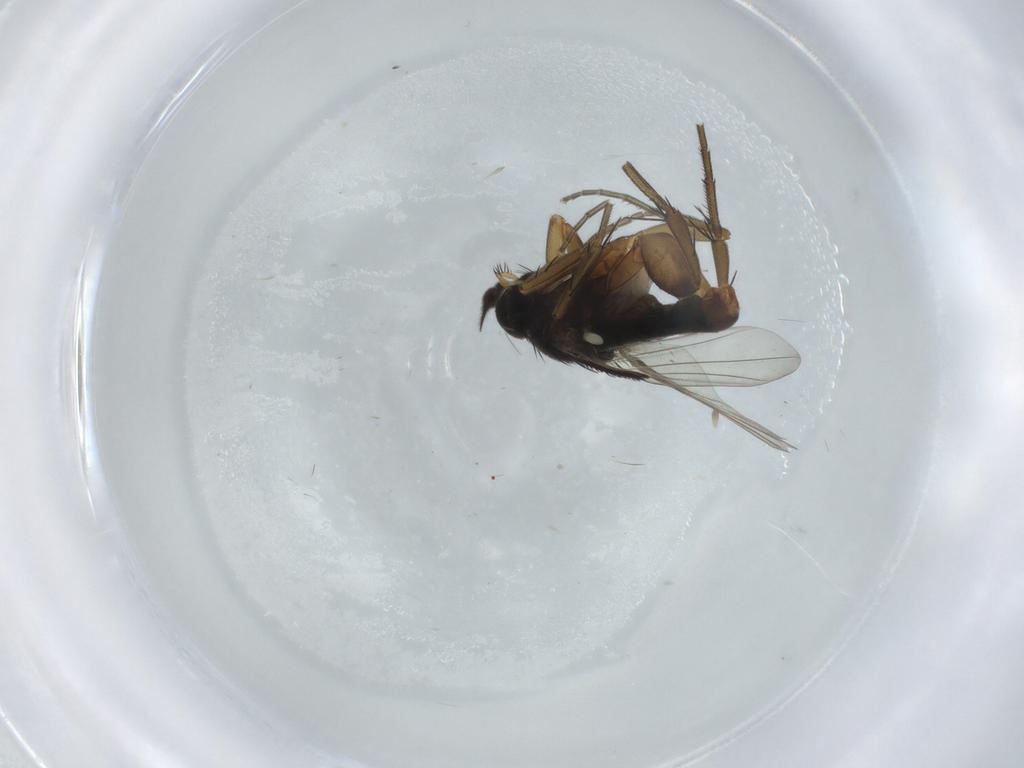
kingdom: Animalia
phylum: Arthropoda
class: Insecta
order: Diptera
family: Phoridae
